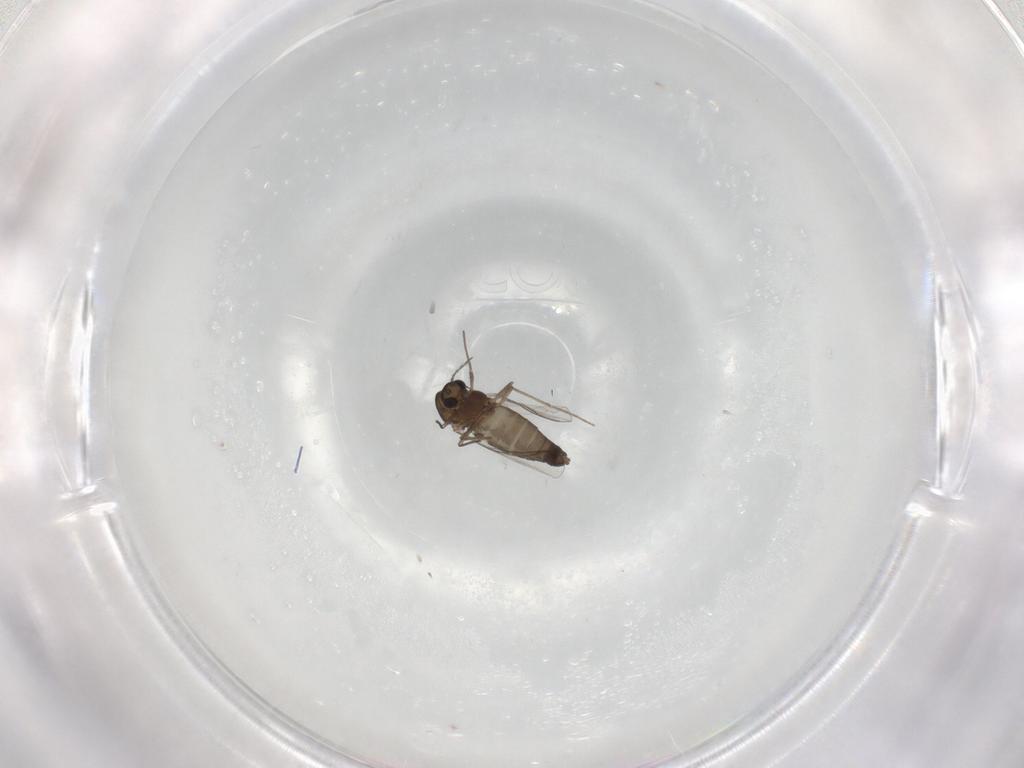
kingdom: Animalia
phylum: Arthropoda
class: Insecta
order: Diptera
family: Chironomidae
